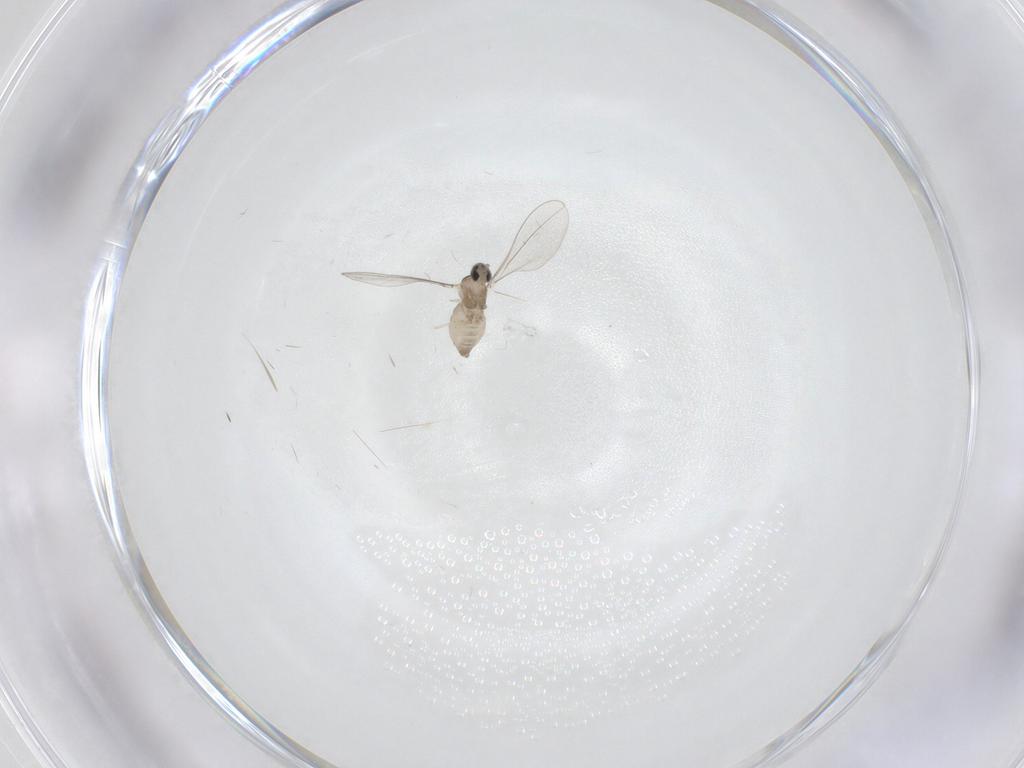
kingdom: Animalia
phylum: Arthropoda
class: Insecta
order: Diptera
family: Cecidomyiidae
